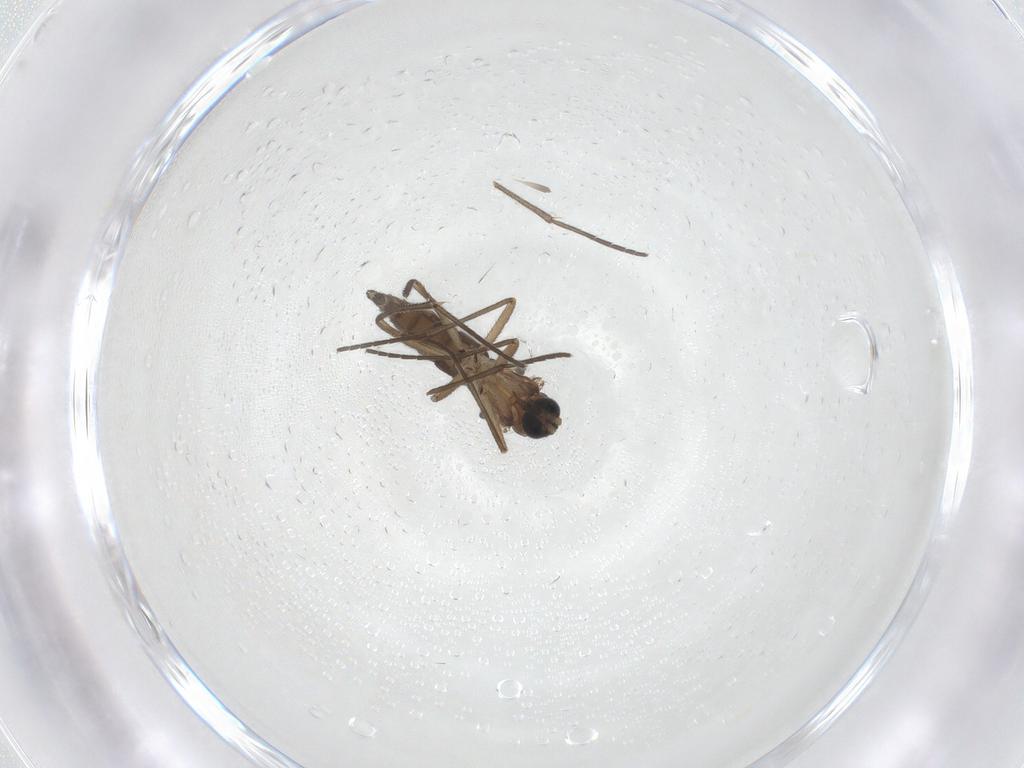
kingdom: Animalia
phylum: Arthropoda
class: Insecta
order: Diptera
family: Sciaridae
